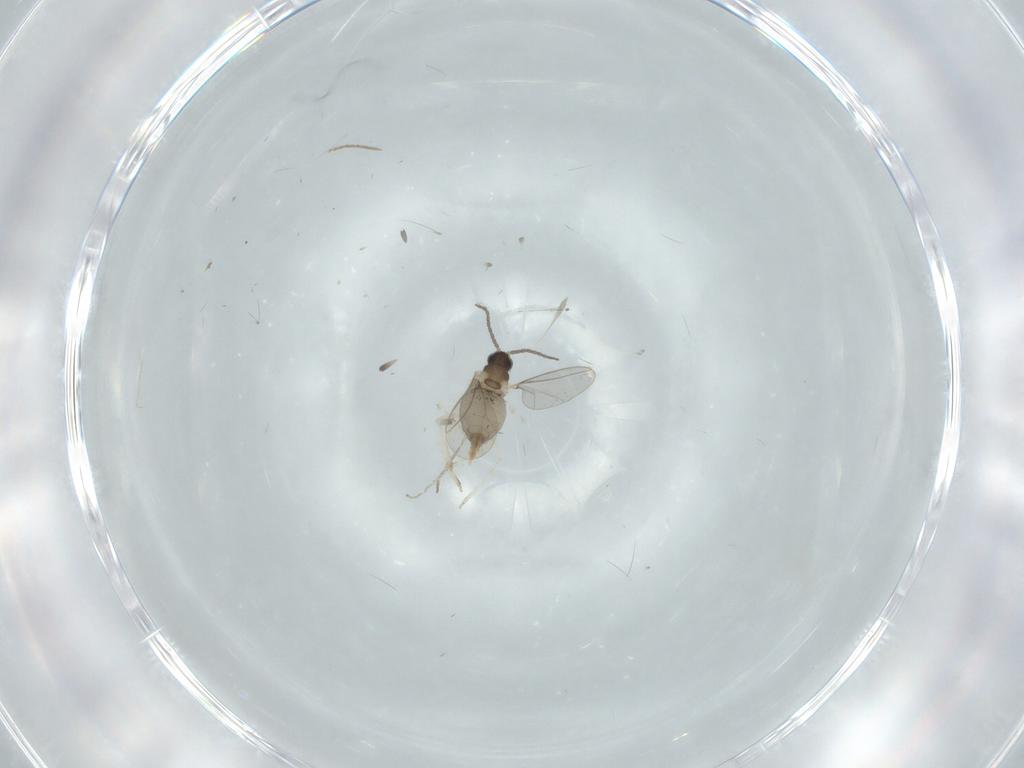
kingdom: Animalia
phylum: Arthropoda
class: Insecta
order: Diptera
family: Cecidomyiidae
